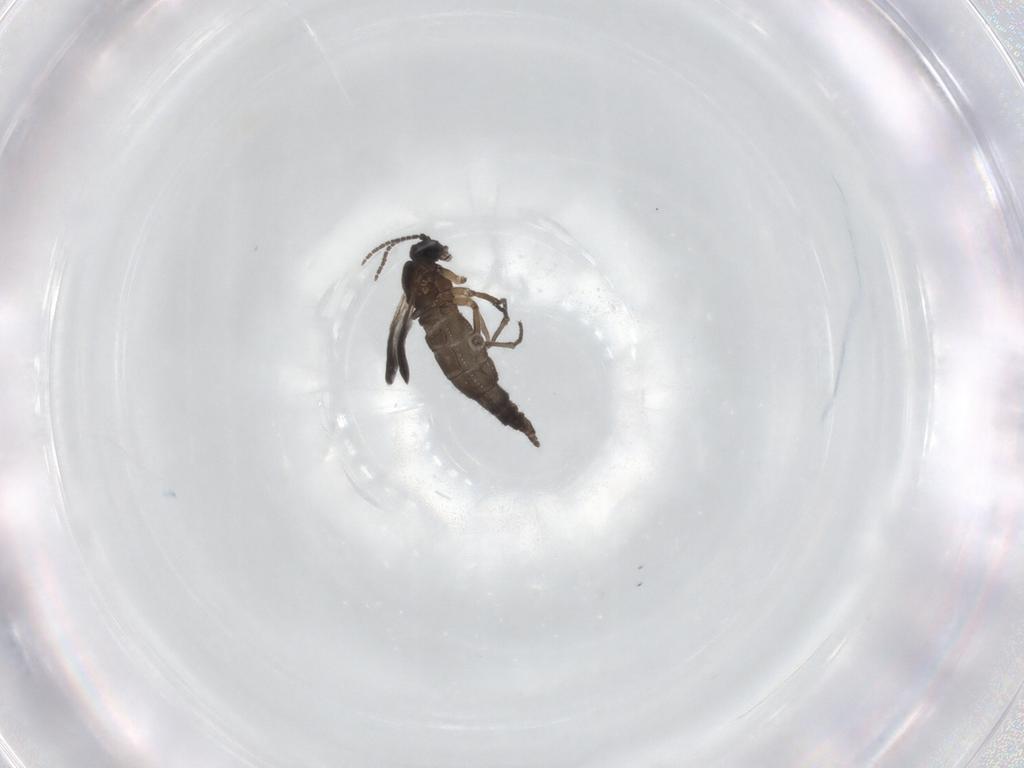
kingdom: Animalia
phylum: Arthropoda
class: Insecta
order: Diptera
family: Sciaridae
